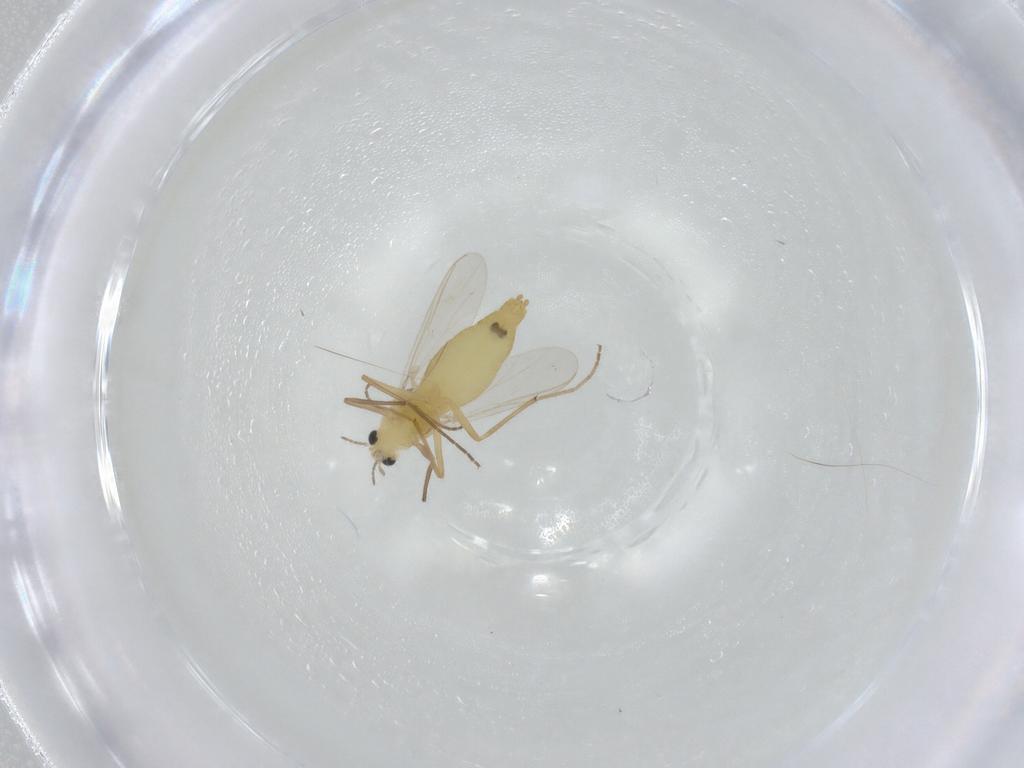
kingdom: Animalia
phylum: Arthropoda
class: Insecta
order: Diptera
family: Chironomidae
